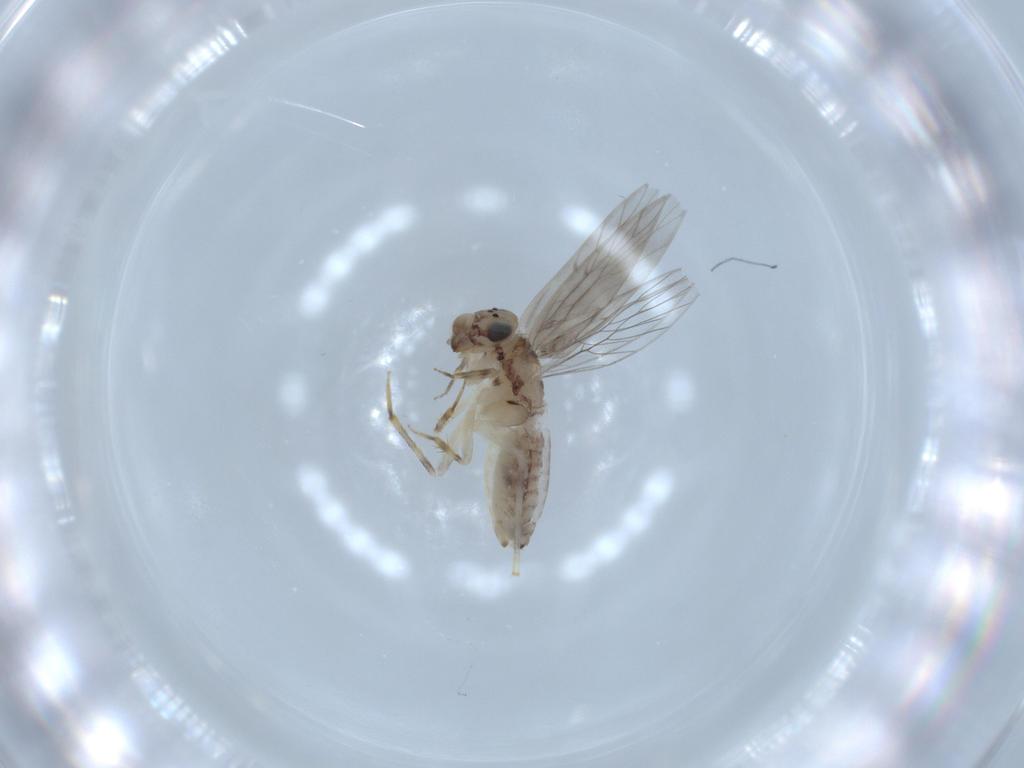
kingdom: Animalia
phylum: Arthropoda
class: Insecta
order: Psocodea
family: Lepidopsocidae
